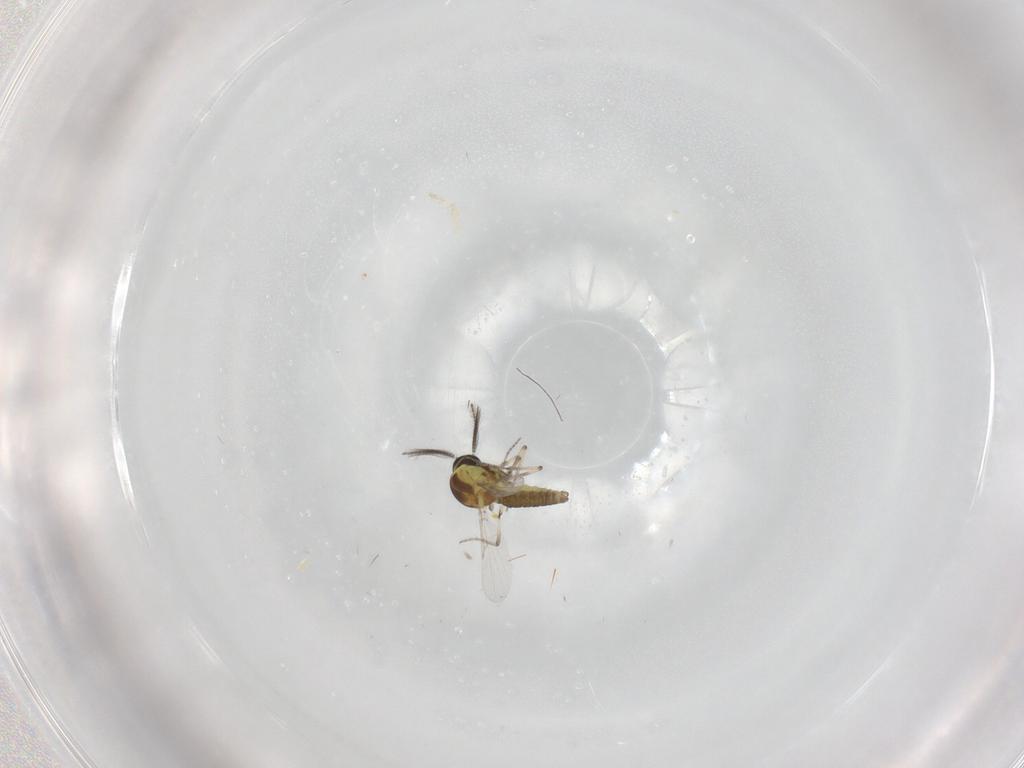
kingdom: Animalia
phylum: Arthropoda
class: Insecta
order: Diptera
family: Ceratopogonidae
